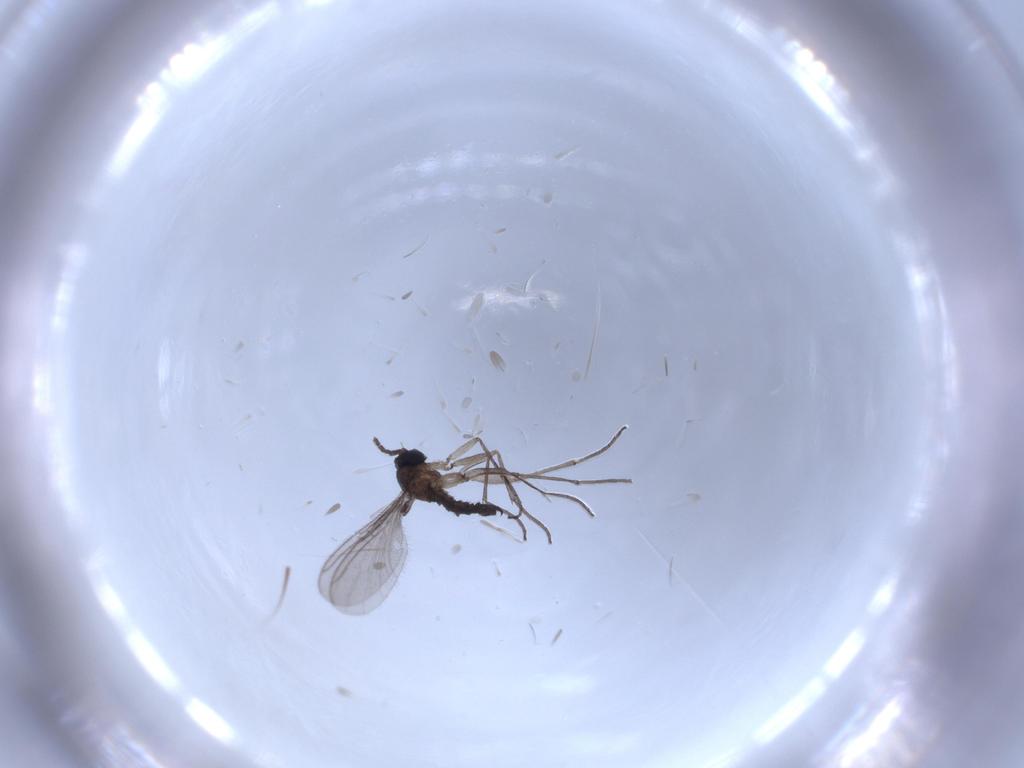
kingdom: Animalia
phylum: Arthropoda
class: Insecta
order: Diptera
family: Sciaridae
